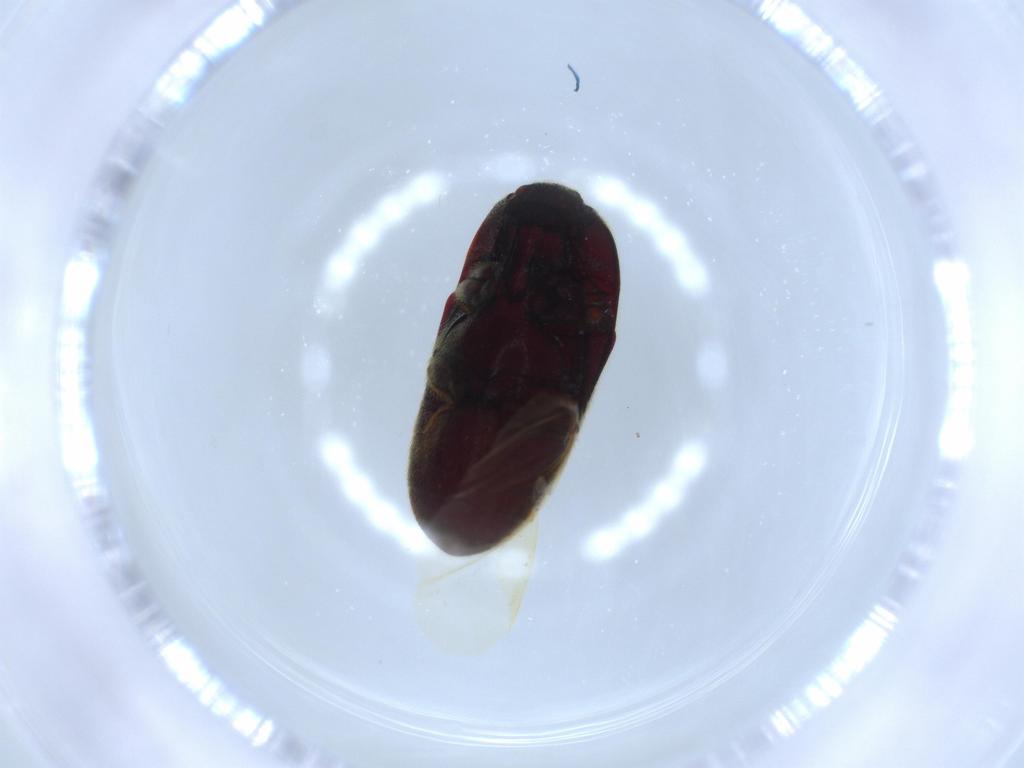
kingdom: Animalia
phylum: Arthropoda
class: Insecta
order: Coleoptera
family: Throscidae
